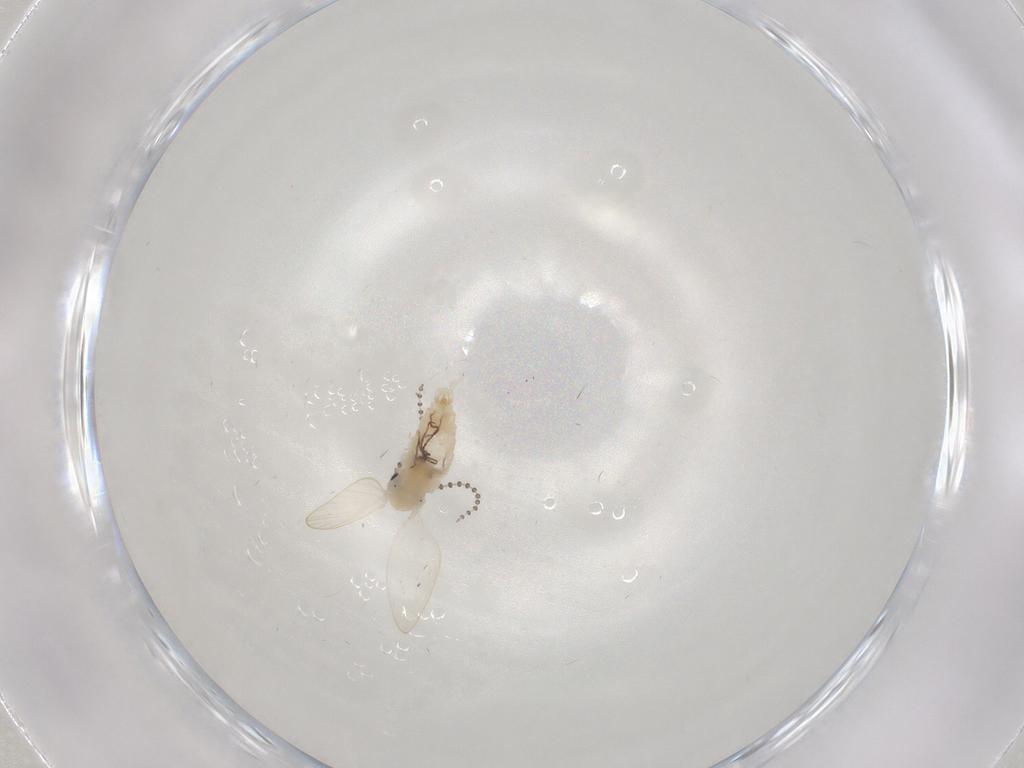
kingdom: Animalia
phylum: Arthropoda
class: Insecta
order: Diptera
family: Psychodidae
